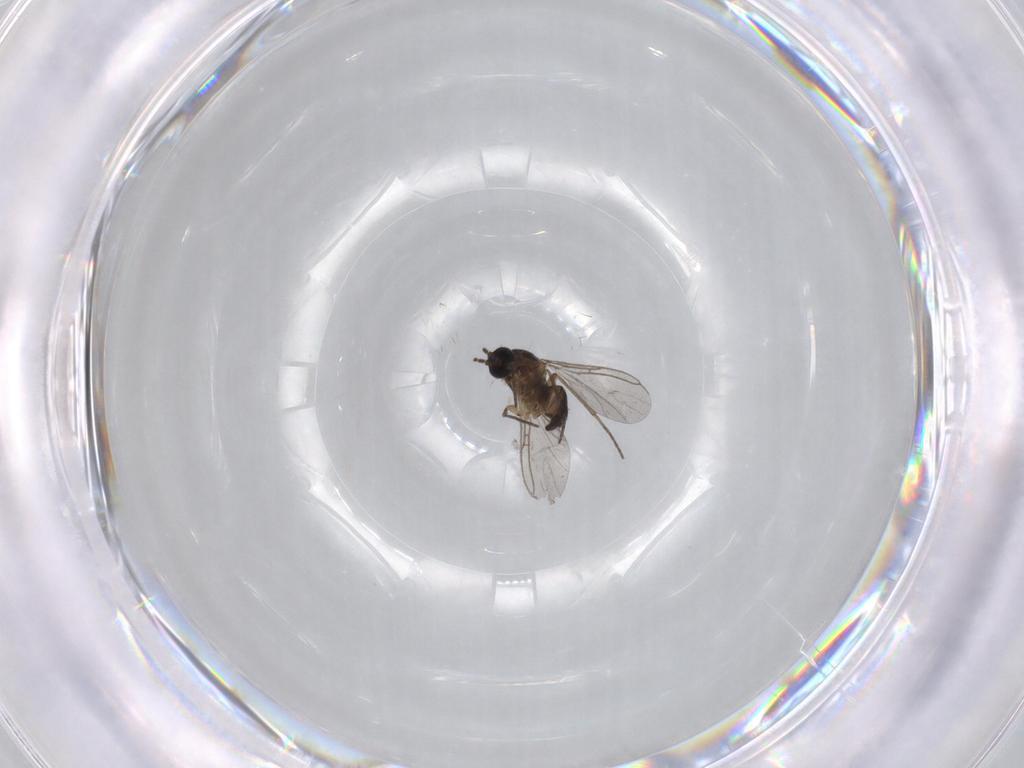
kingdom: Animalia
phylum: Arthropoda
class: Insecta
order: Diptera
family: Sciaridae
